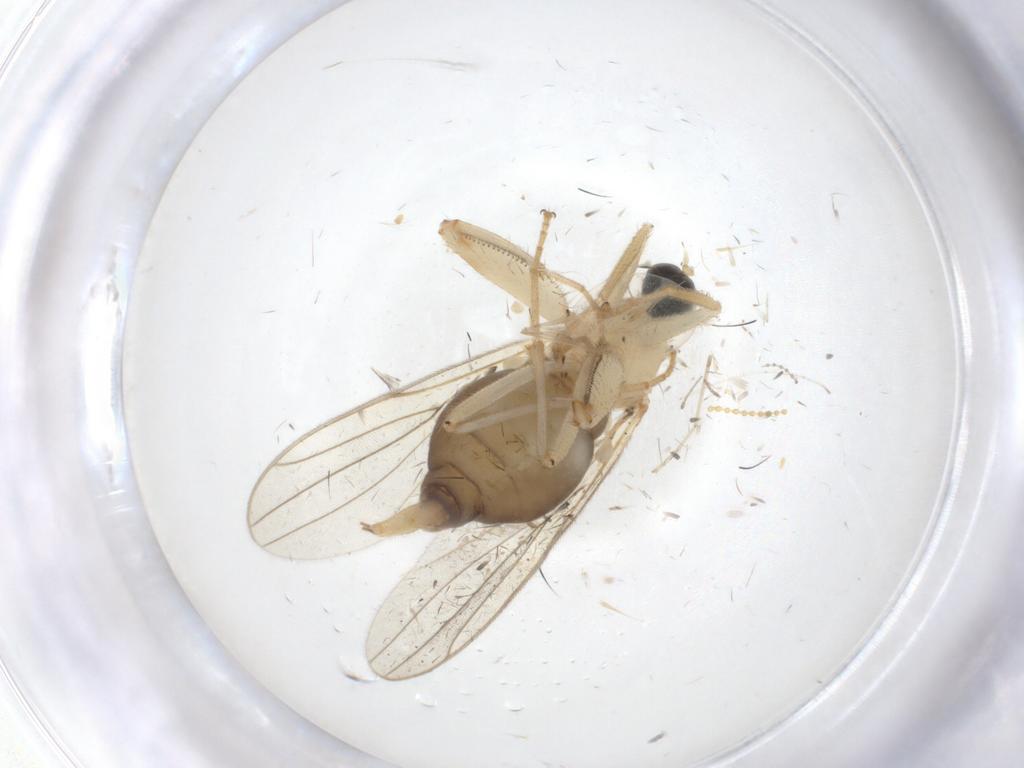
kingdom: Animalia
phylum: Arthropoda
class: Insecta
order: Diptera
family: Hybotidae
